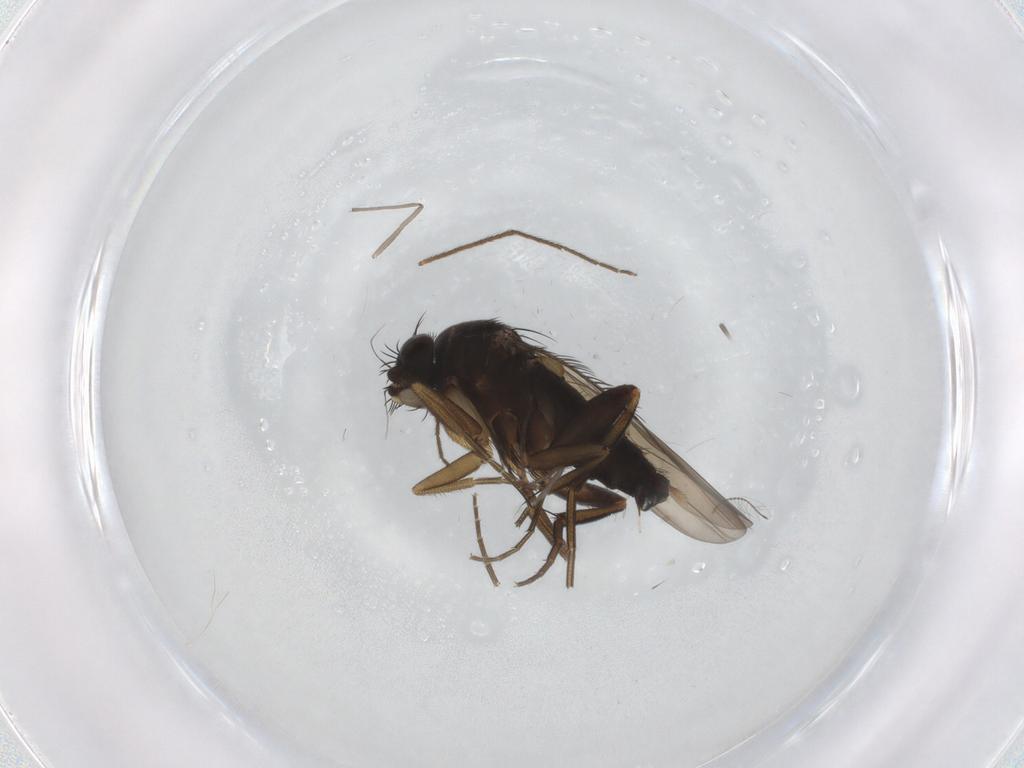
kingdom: Animalia
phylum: Arthropoda
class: Insecta
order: Diptera
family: Phoridae
